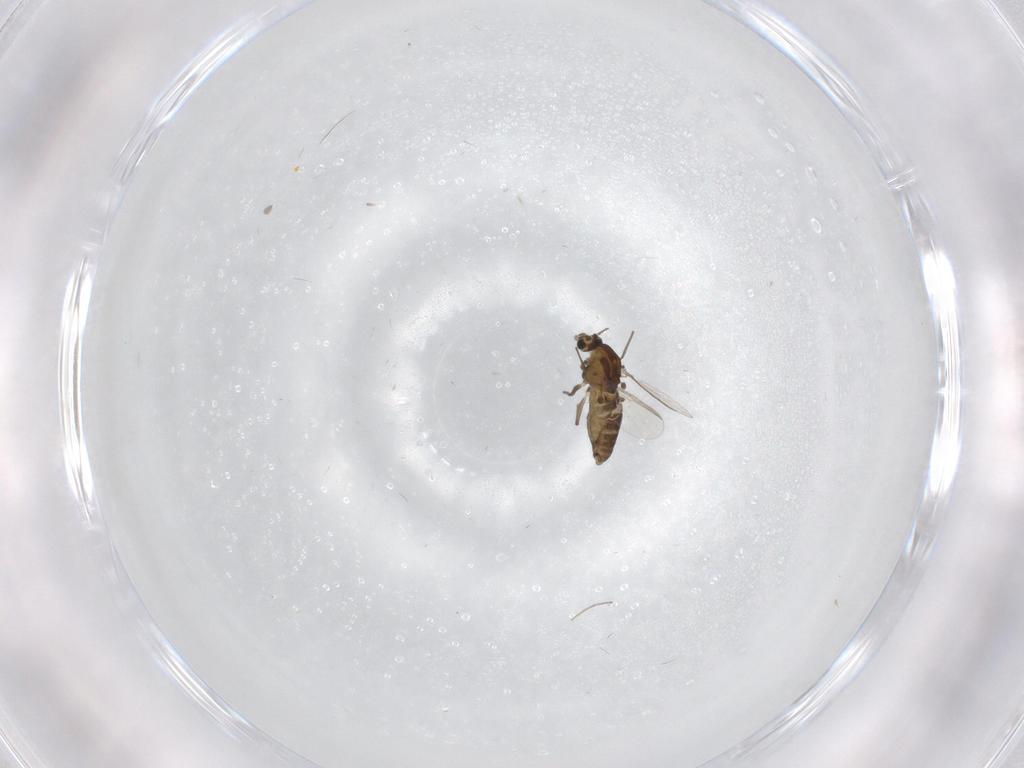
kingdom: Animalia
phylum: Arthropoda
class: Insecta
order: Diptera
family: Chironomidae
